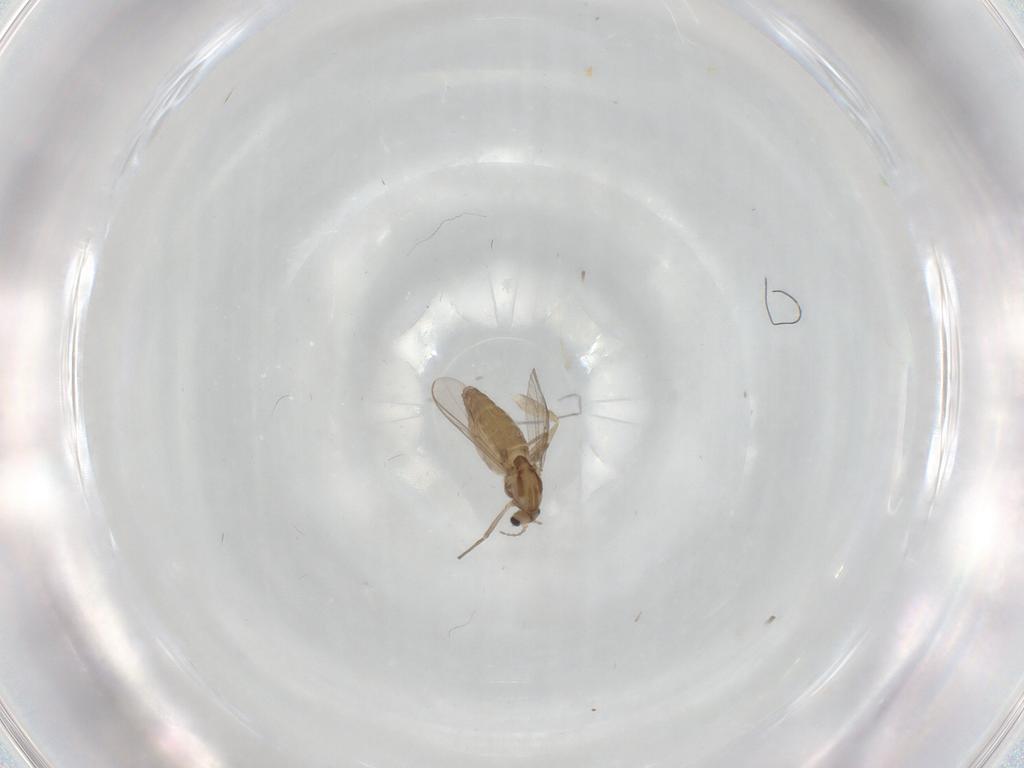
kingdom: Animalia
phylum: Arthropoda
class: Insecta
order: Diptera
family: Chironomidae
